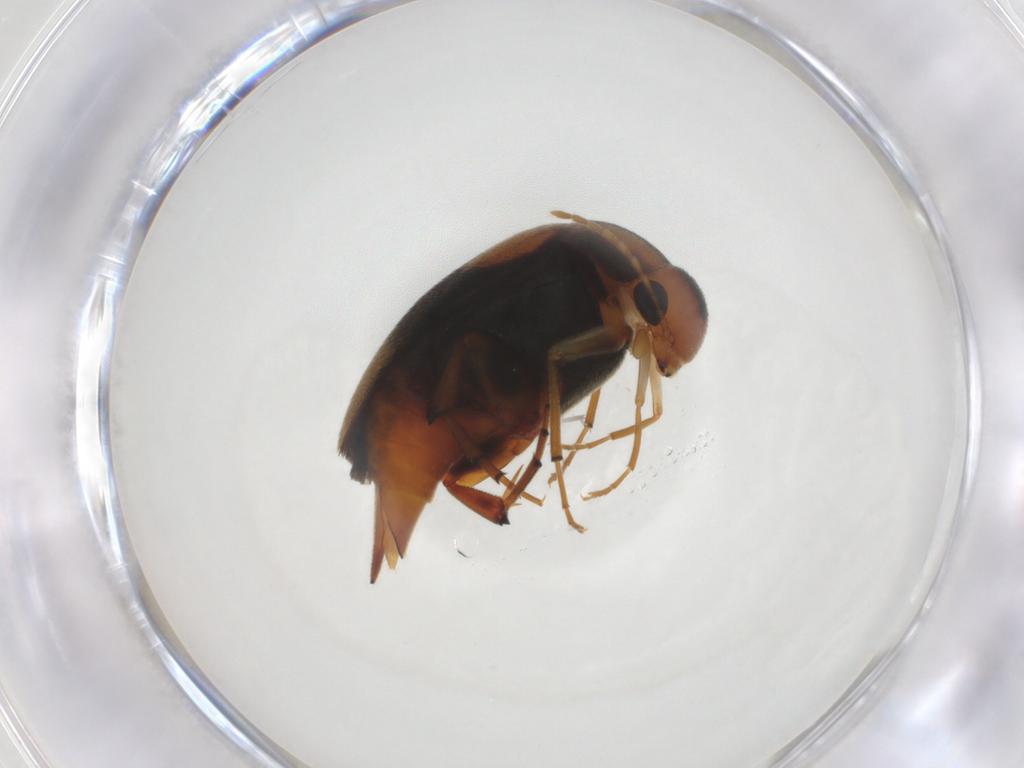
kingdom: Animalia
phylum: Arthropoda
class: Insecta
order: Coleoptera
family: Mordellidae
